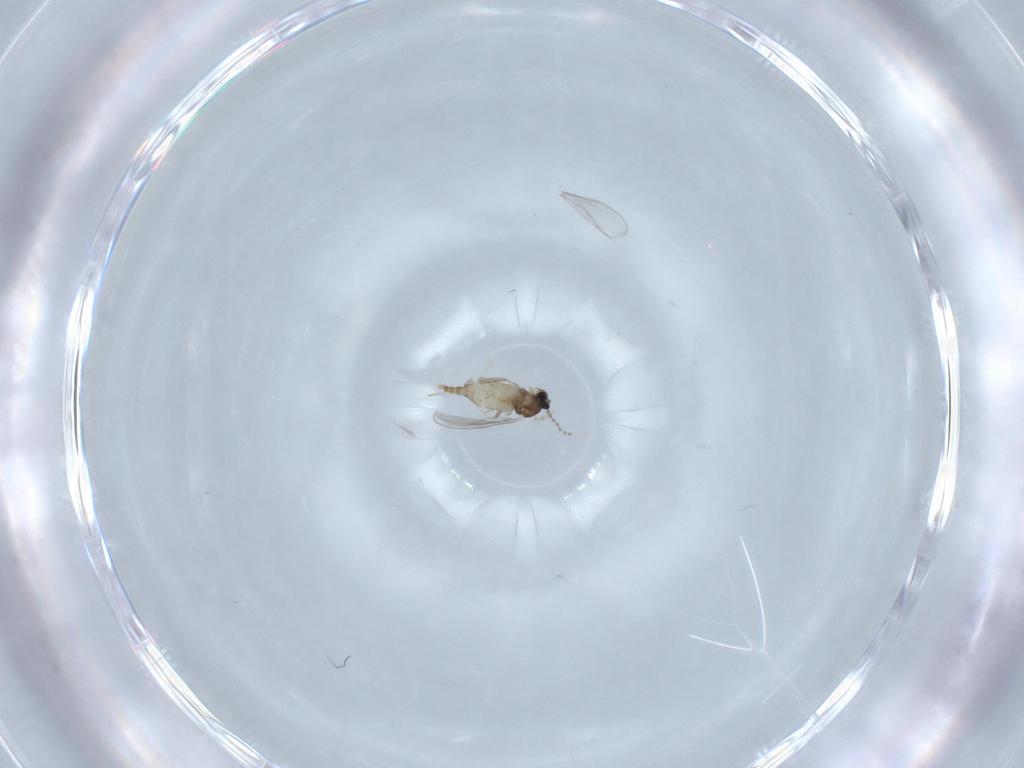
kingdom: Animalia
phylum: Arthropoda
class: Insecta
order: Diptera
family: Cecidomyiidae
